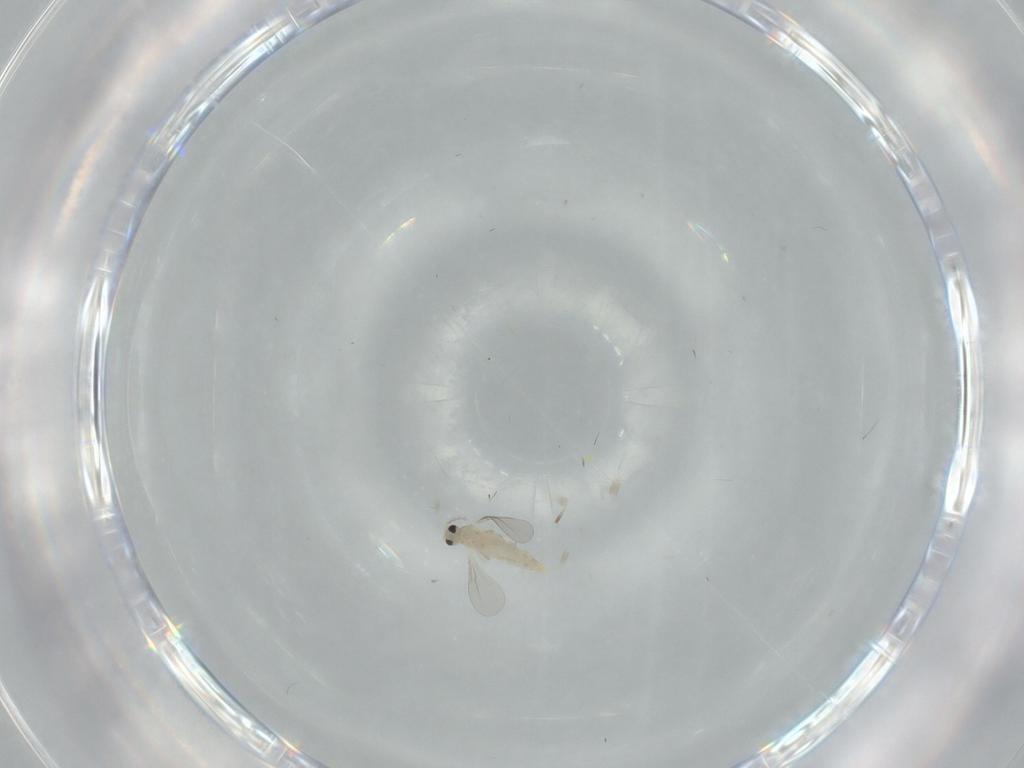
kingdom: Animalia
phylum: Arthropoda
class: Insecta
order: Diptera
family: Cecidomyiidae
